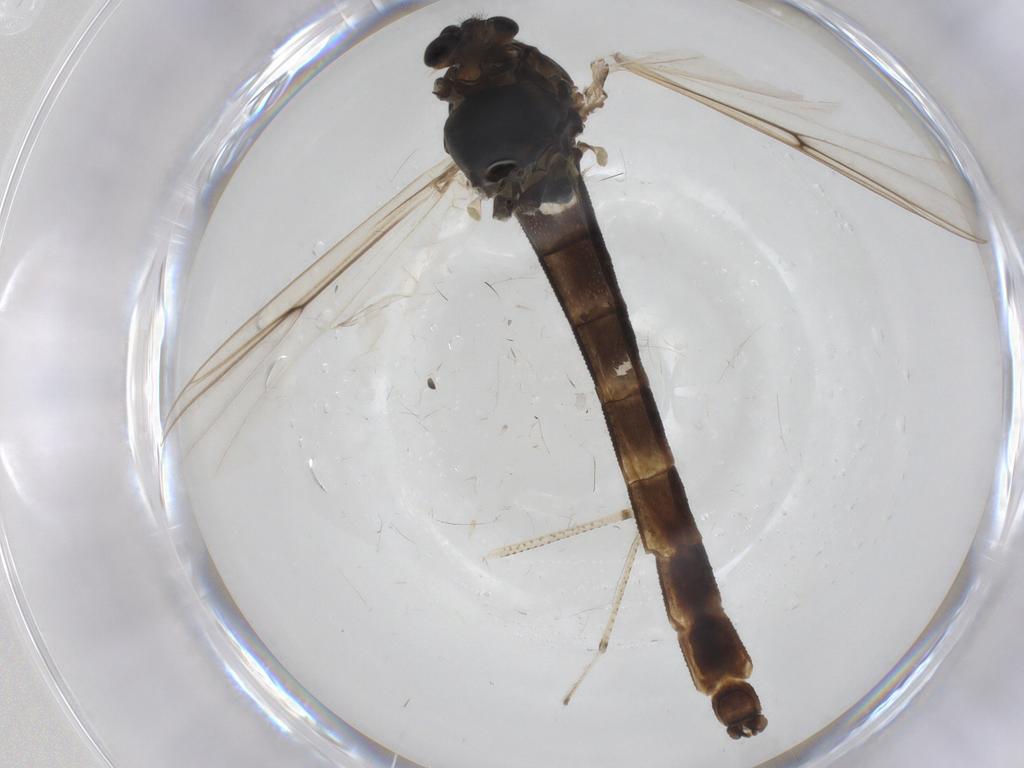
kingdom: Animalia
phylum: Arthropoda
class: Insecta
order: Diptera
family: Chironomidae
